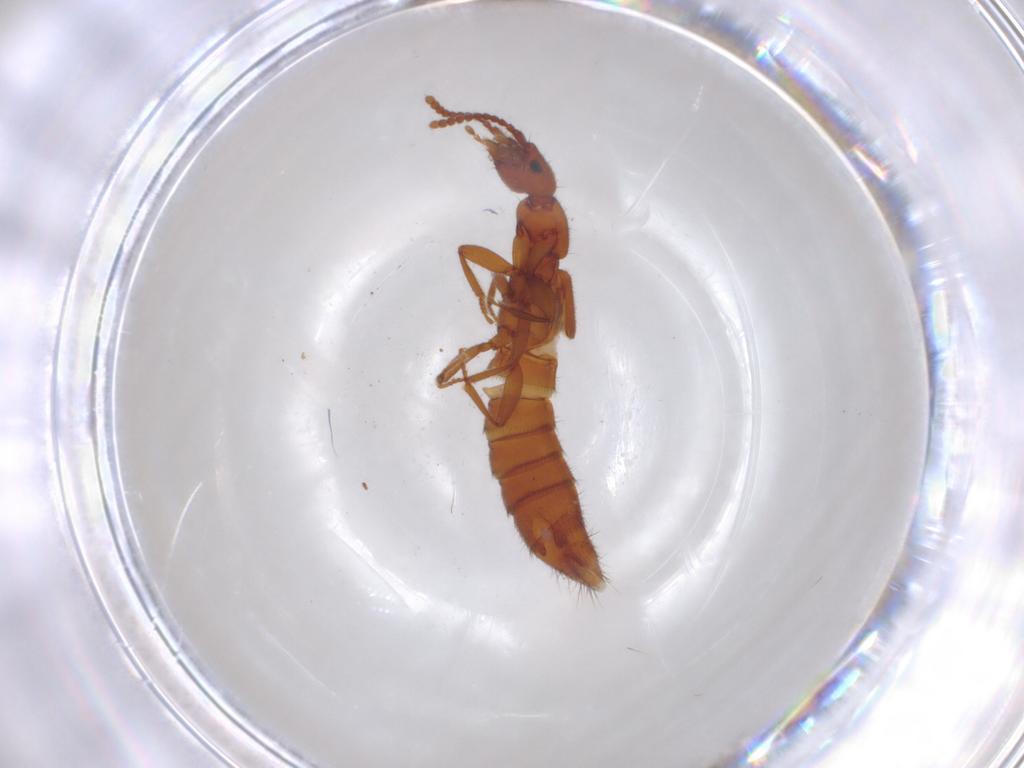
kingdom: Animalia
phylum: Arthropoda
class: Insecta
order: Coleoptera
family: Staphylinidae
